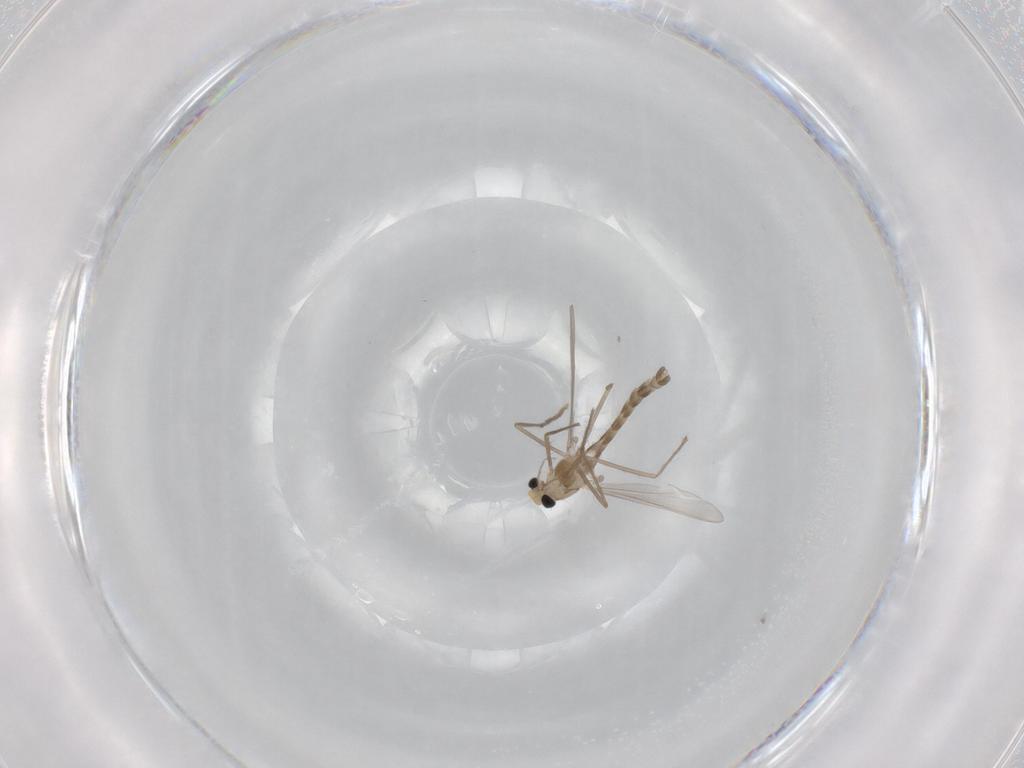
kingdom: Animalia
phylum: Arthropoda
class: Insecta
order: Diptera
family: Chironomidae
